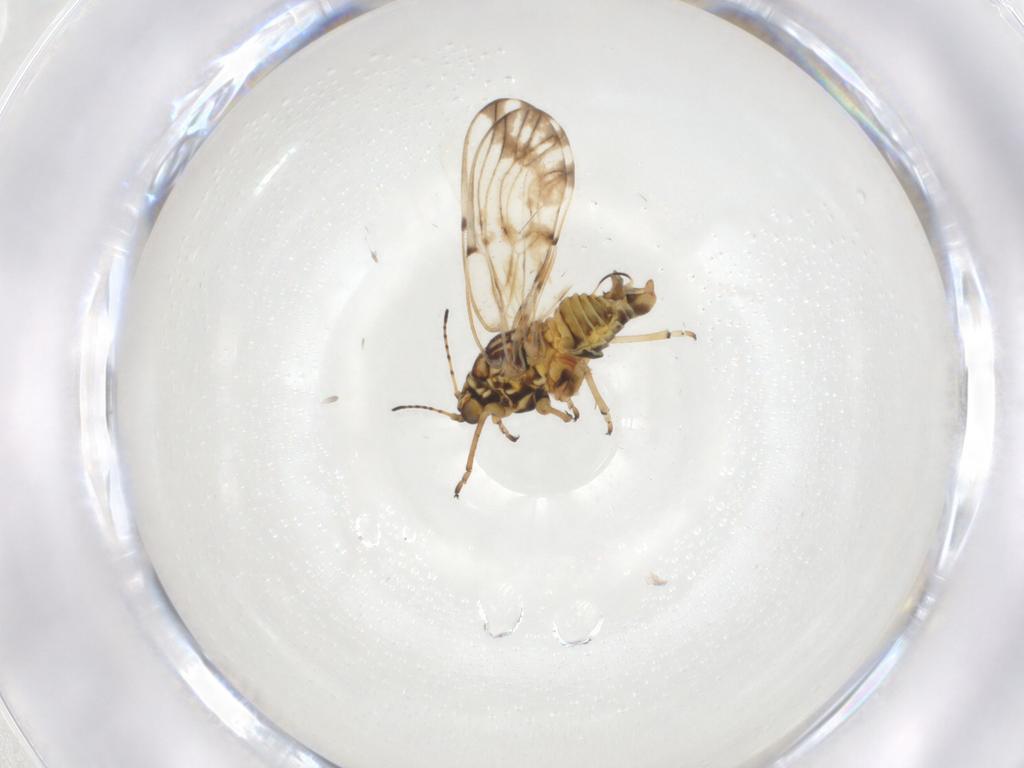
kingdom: Animalia
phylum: Arthropoda
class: Insecta
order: Hemiptera
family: Psylloidea_incertae_sedis
